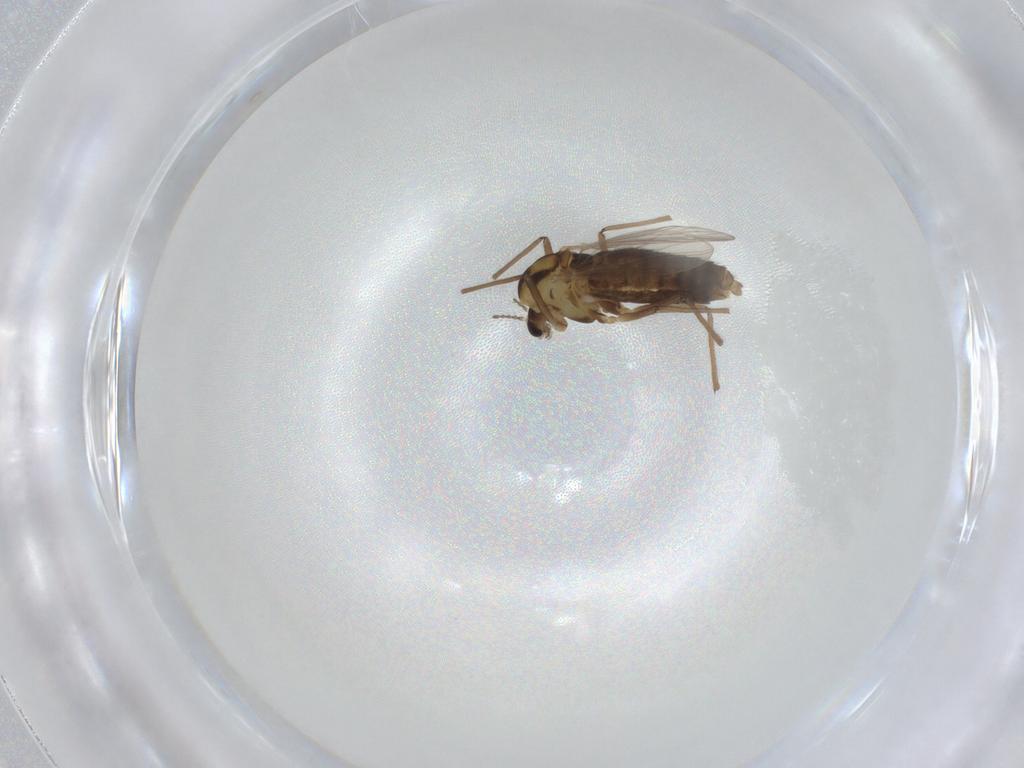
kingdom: Animalia
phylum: Arthropoda
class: Insecta
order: Diptera
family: Chironomidae
